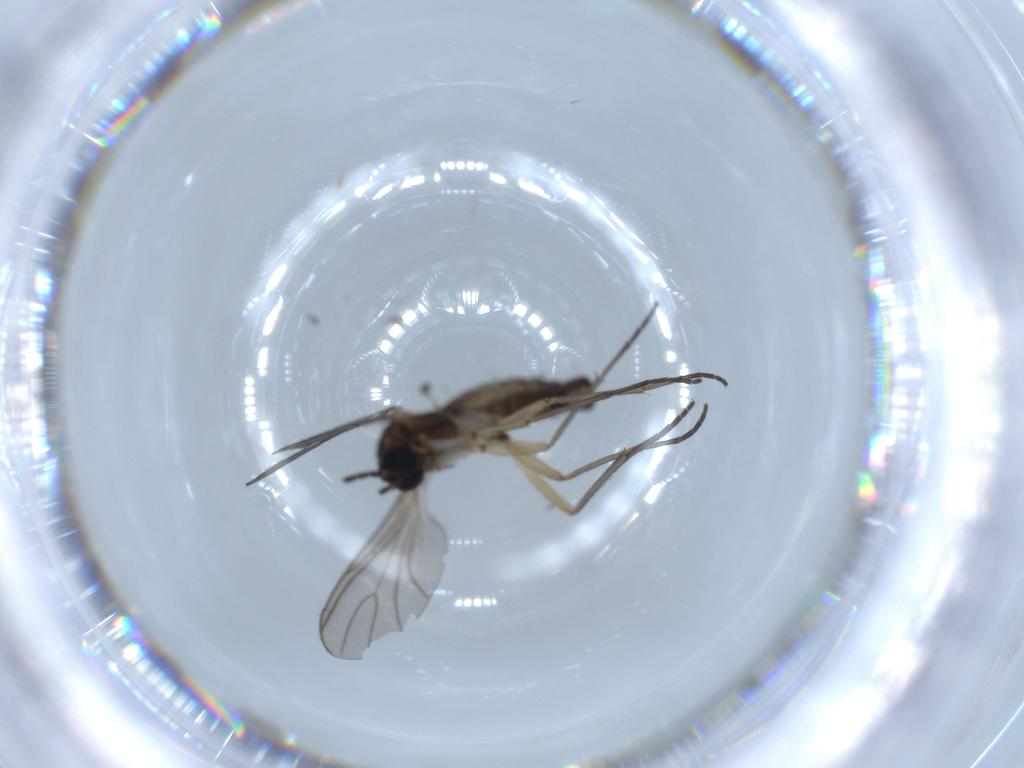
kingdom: Animalia
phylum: Arthropoda
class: Insecta
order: Diptera
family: Sciaridae
